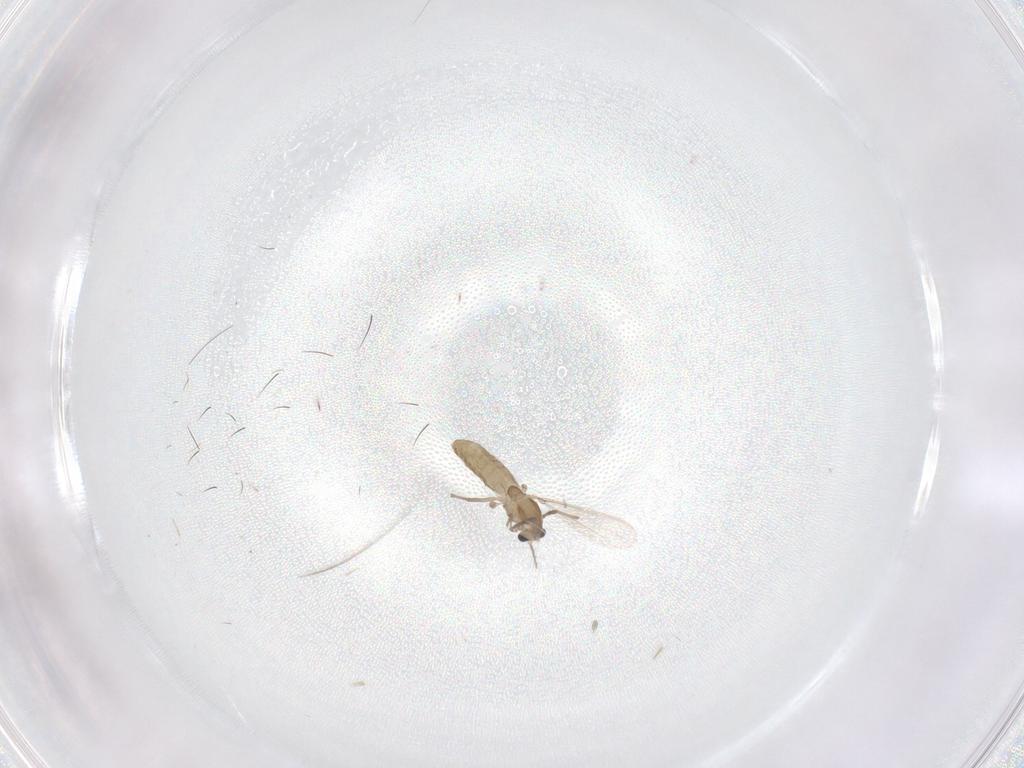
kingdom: Animalia
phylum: Arthropoda
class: Insecta
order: Diptera
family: Chironomidae
